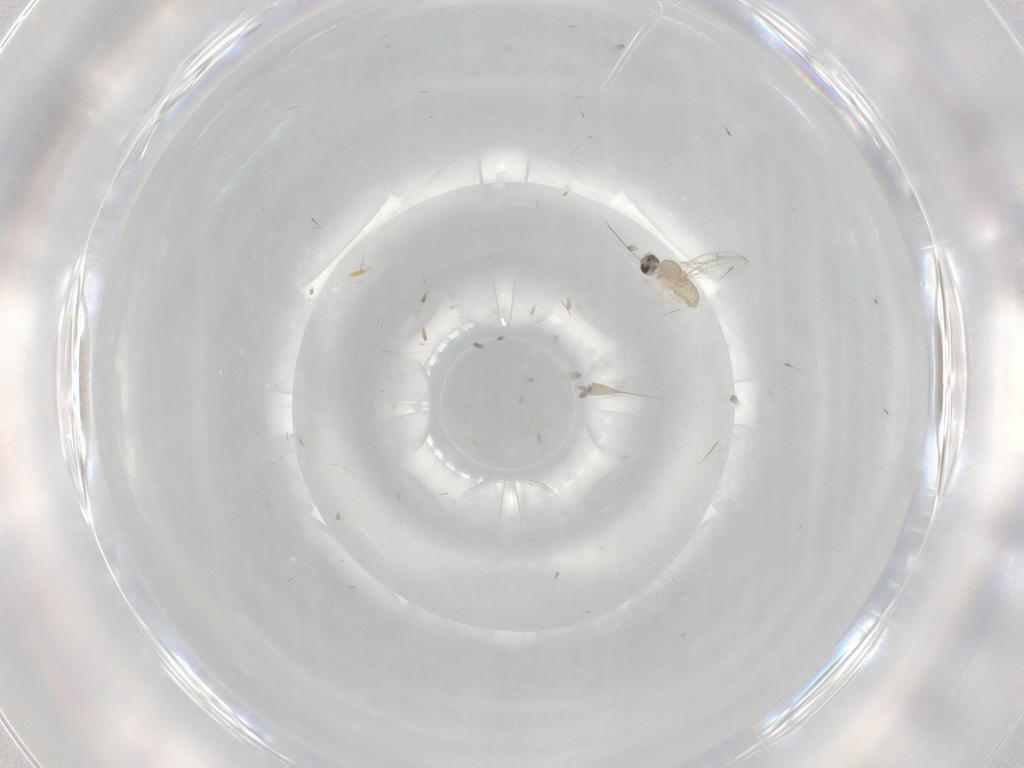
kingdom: Animalia
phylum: Arthropoda
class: Insecta
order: Diptera
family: Cecidomyiidae
